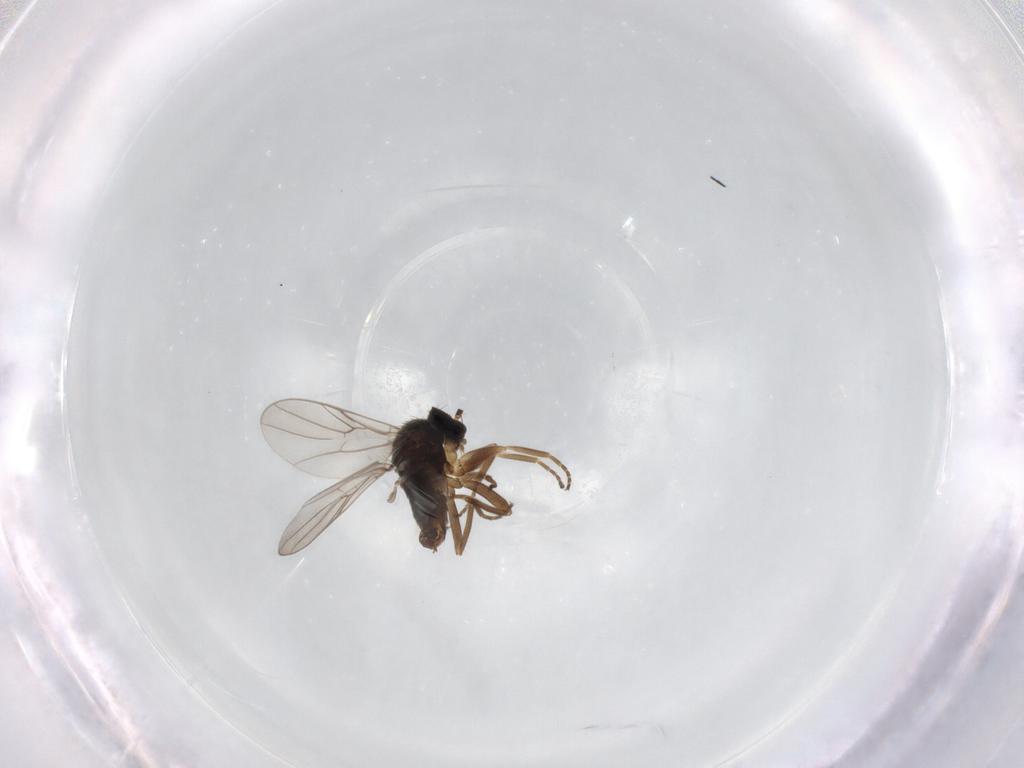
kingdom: Animalia
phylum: Arthropoda
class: Insecta
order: Diptera
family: Hybotidae
